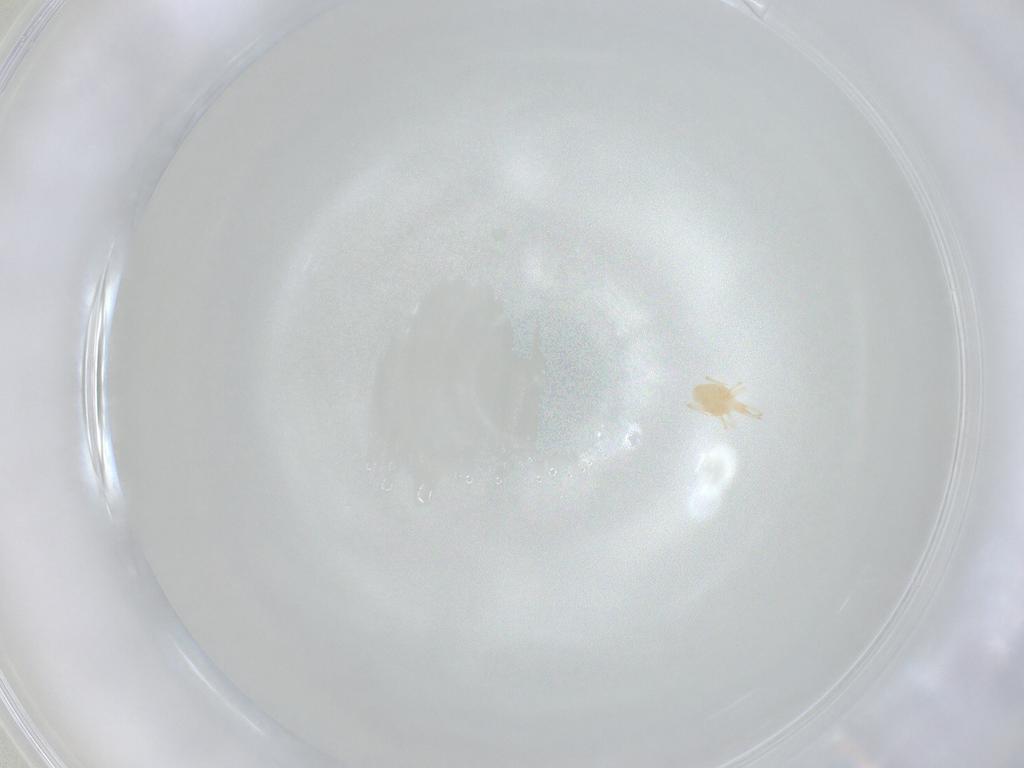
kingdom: Animalia
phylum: Arthropoda
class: Arachnida
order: Trombidiformes
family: Cunaxidae
